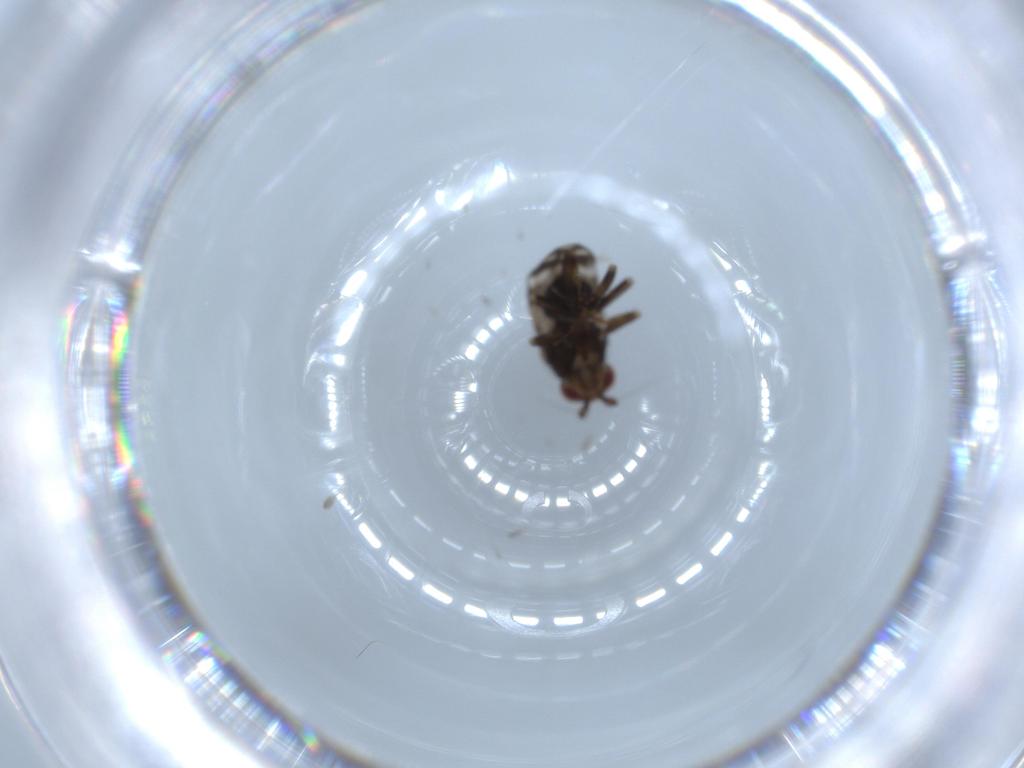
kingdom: Animalia
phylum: Arthropoda
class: Insecta
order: Diptera
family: Sphaeroceridae
